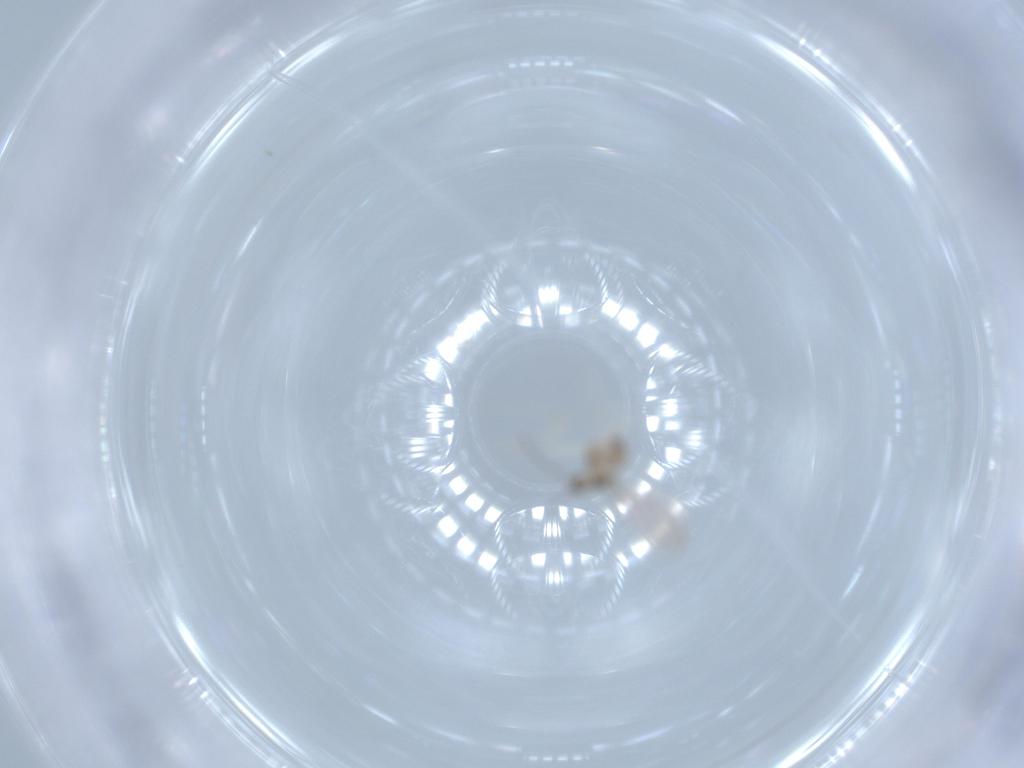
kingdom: Animalia
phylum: Arthropoda
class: Insecta
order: Diptera
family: Cecidomyiidae
